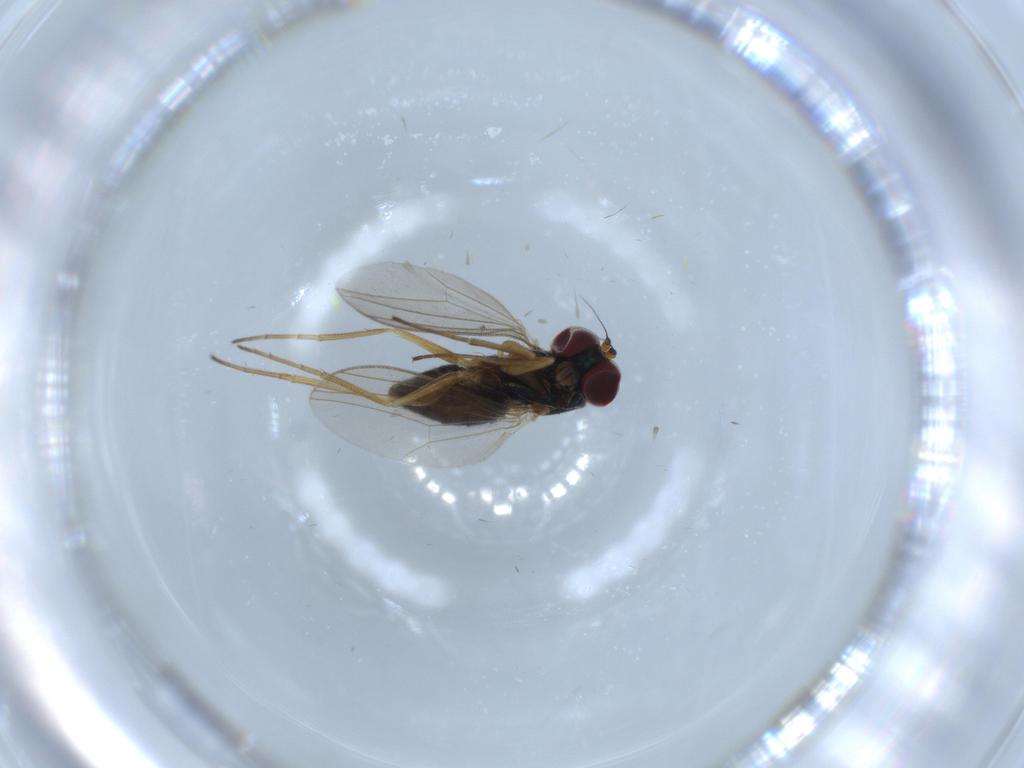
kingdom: Animalia
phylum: Arthropoda
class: Insecta
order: Diptera
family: Dolichopodidae
